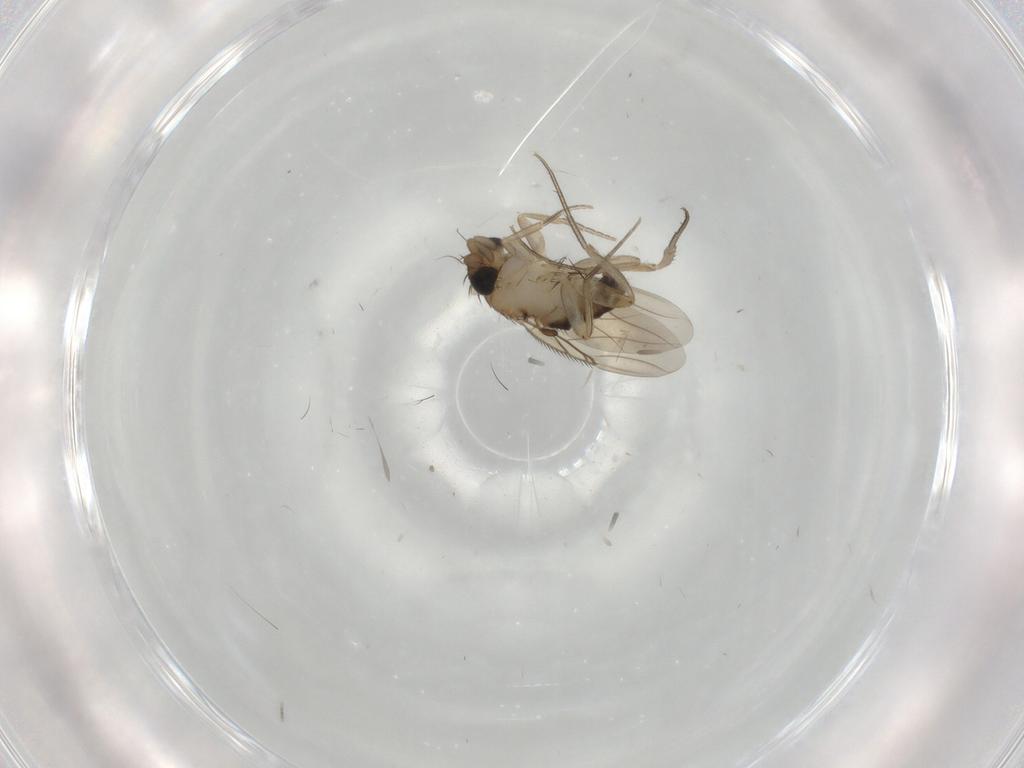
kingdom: Animalia
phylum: Arthropoda
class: Insecta
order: Diptera
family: Phoridae
